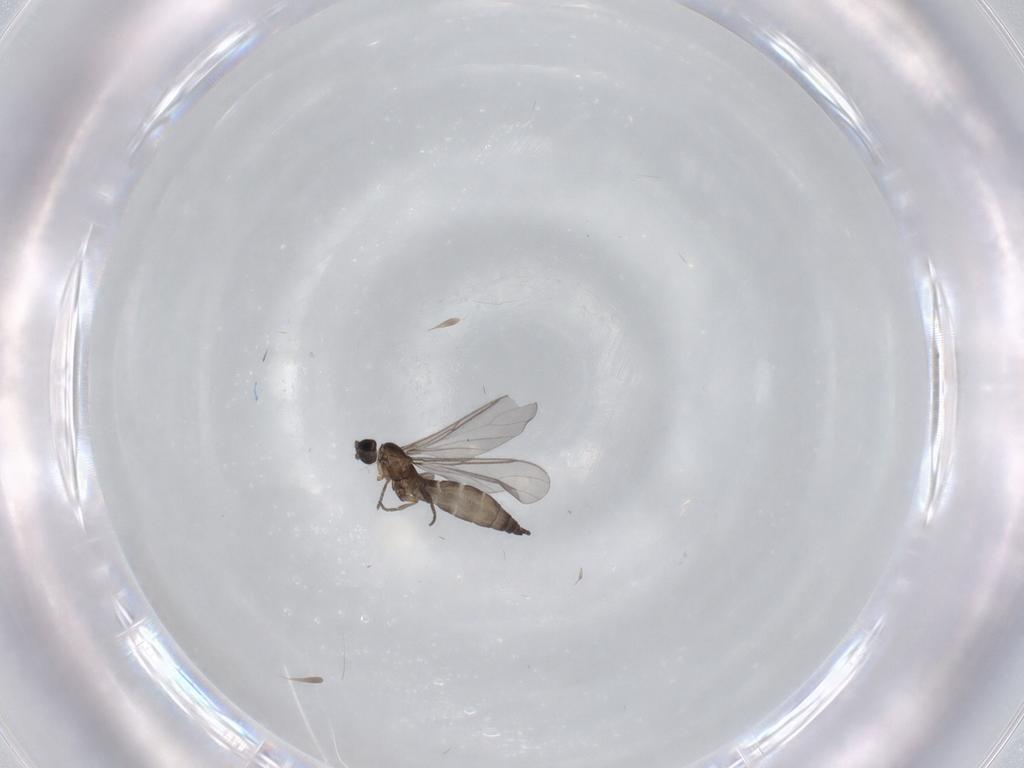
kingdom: Animalia
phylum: Arthropoda
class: Insecta
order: Diptera
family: Sciaridae
